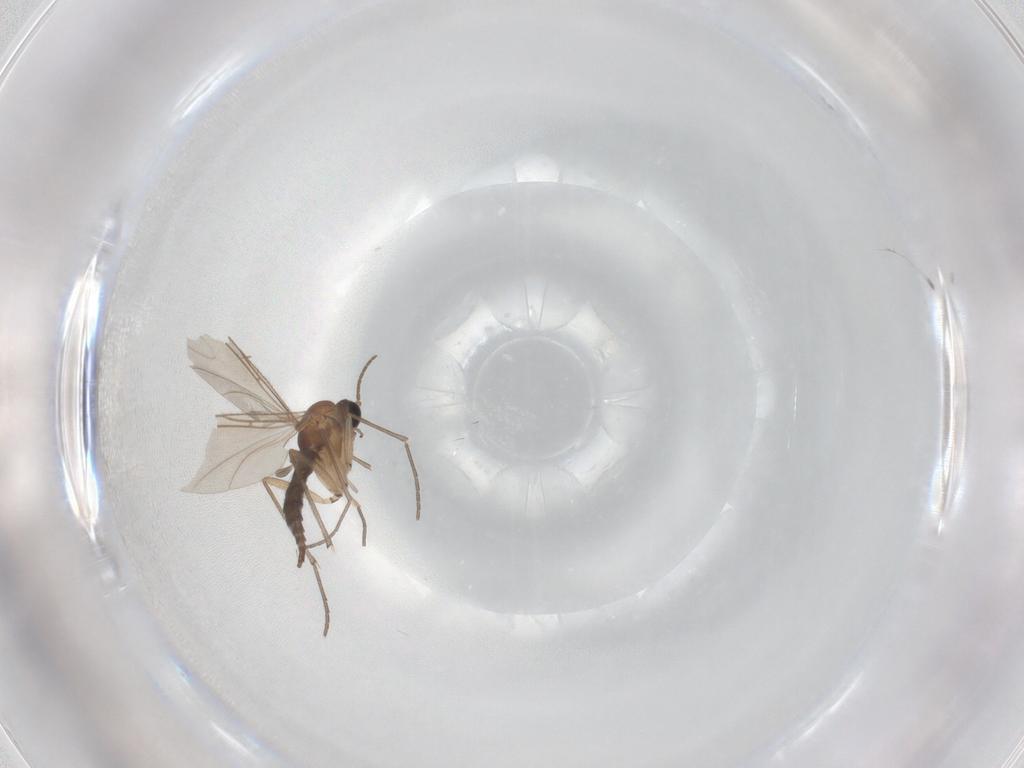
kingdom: Animalia
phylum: Arthropoda
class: Insecta
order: Diptera
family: Sciaridae
